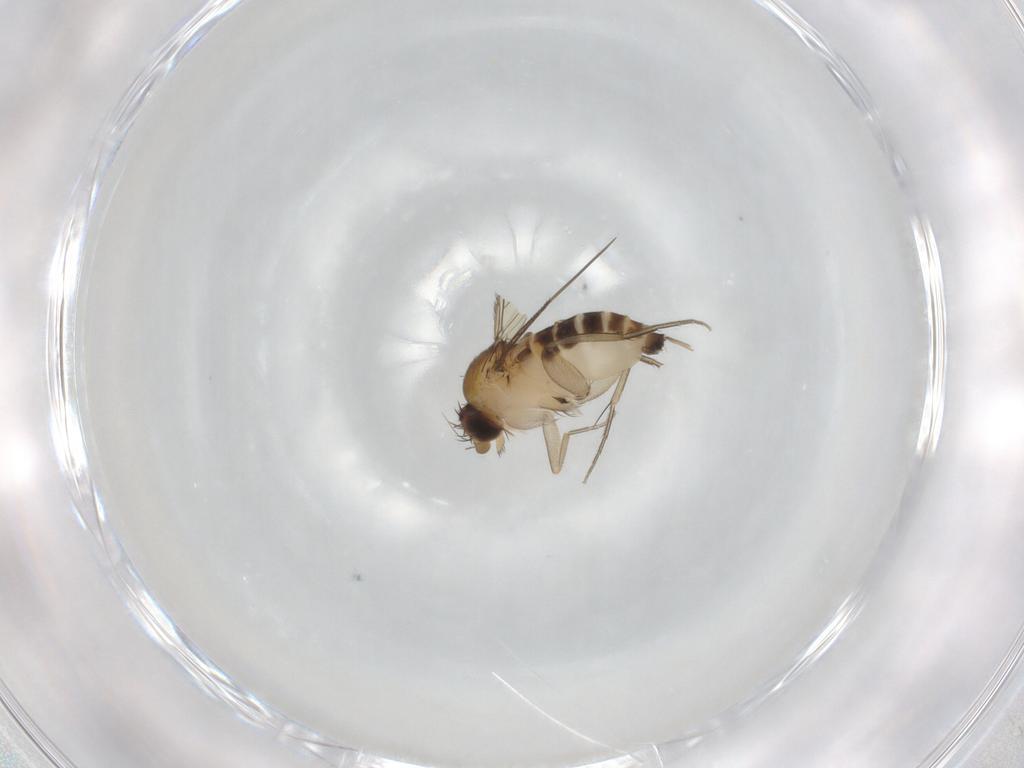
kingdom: Animalia
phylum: Arthropoda
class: Insecta
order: Diptera
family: Phoridae
